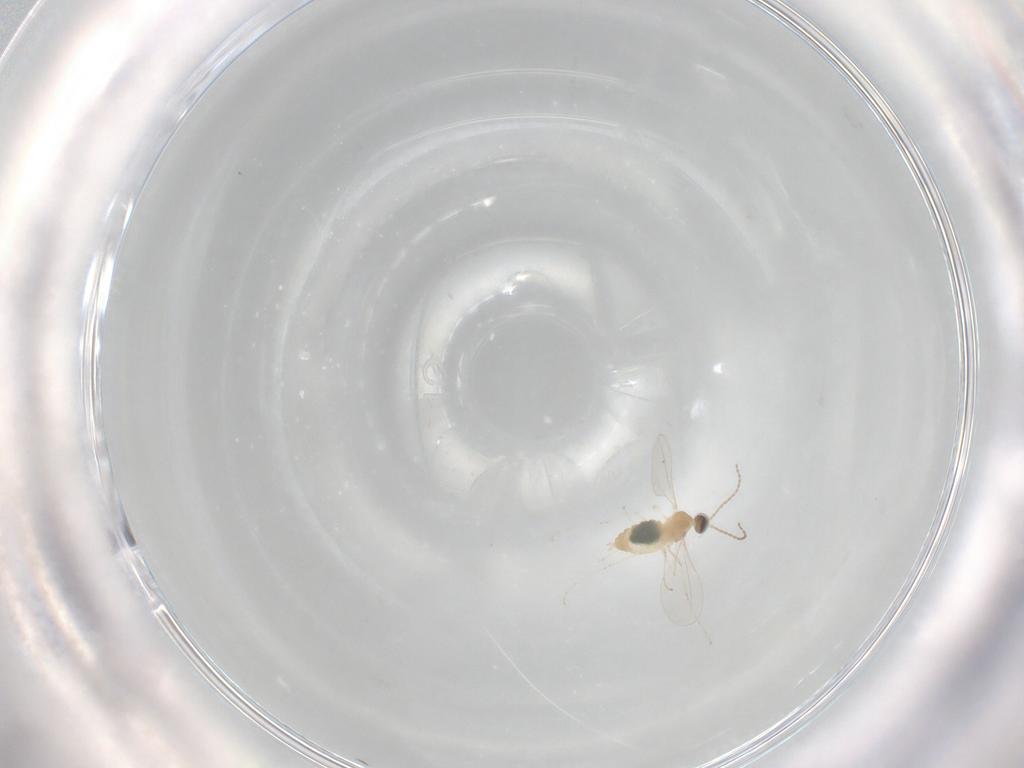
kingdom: Animalia
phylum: Arthropoda
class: Insecta
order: Diptera
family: Cecidomyiidae
